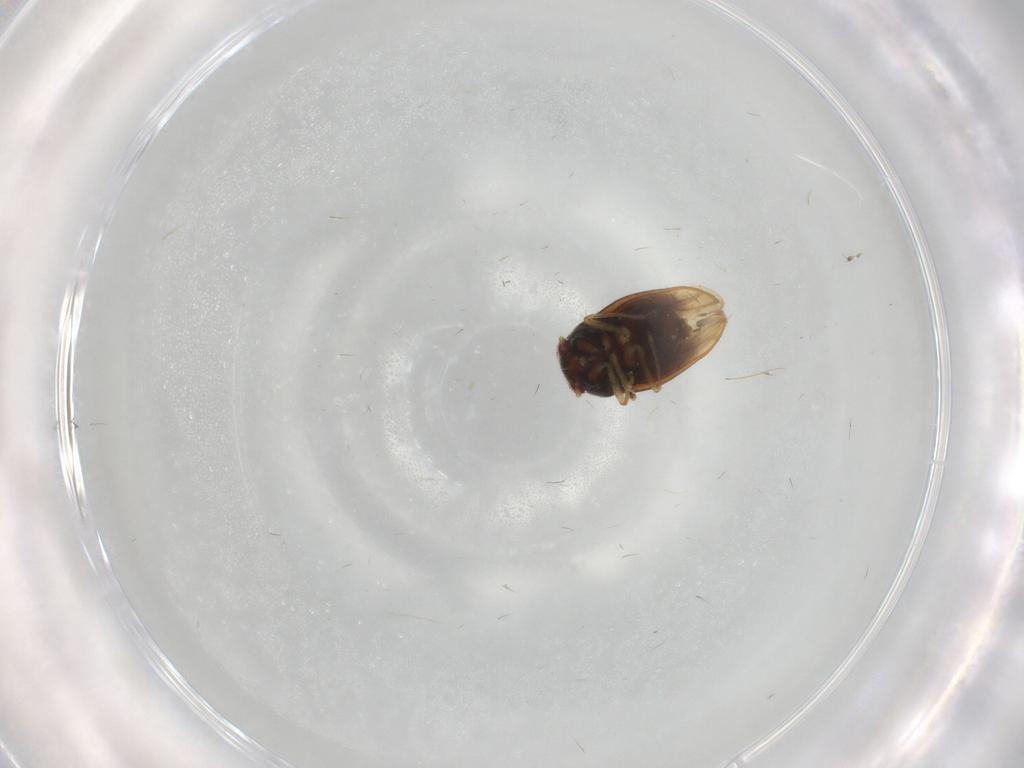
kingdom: Animalia
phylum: Arthropoda
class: Insecta
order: Hemiptera
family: Schizopteridae
